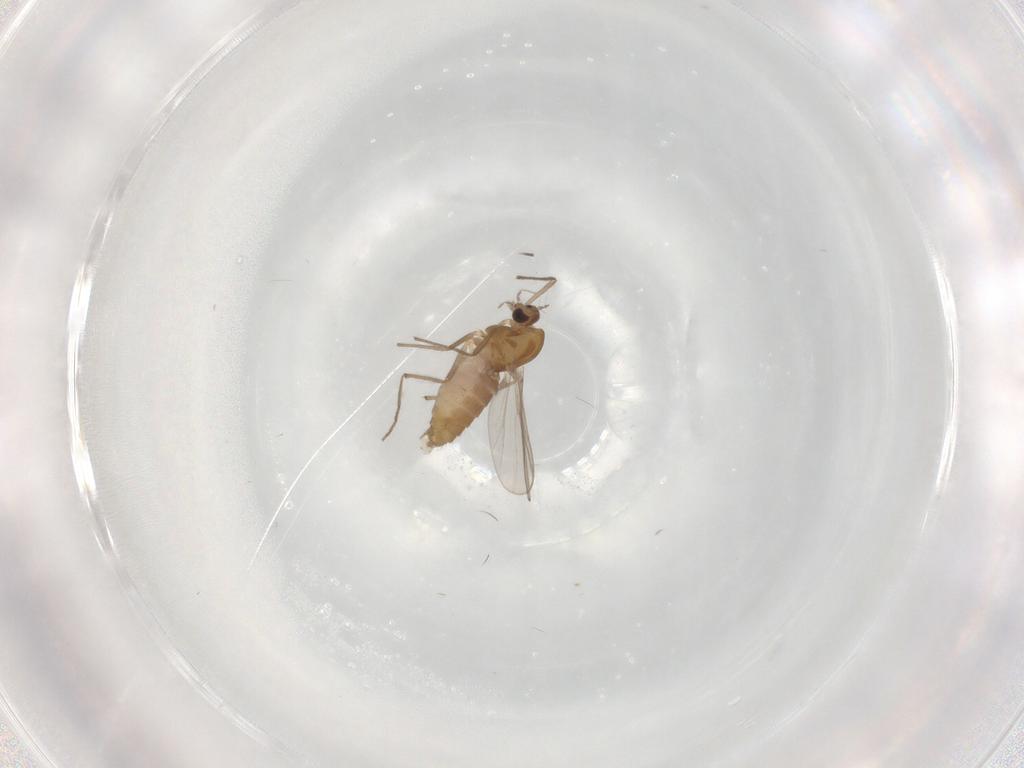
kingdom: Animalia
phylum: Arthropoda
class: Insecta
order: Diptera
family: Chironomidae
